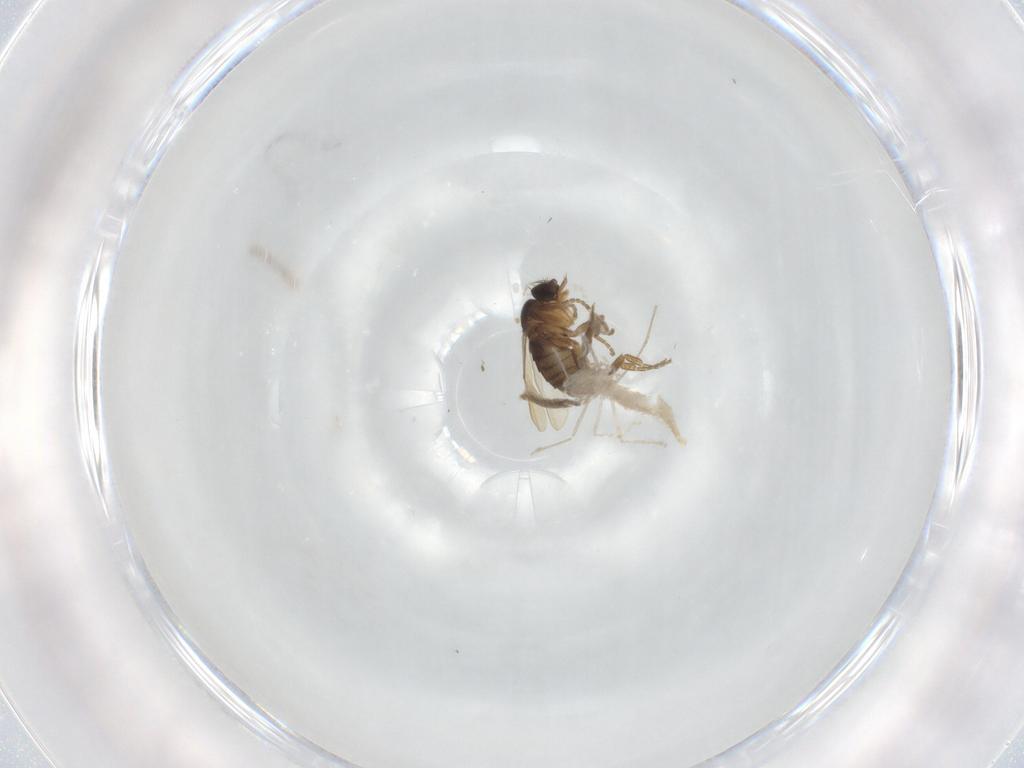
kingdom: Animalia
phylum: Arthropoda
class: Insecta
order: Diptera
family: Phoridae
